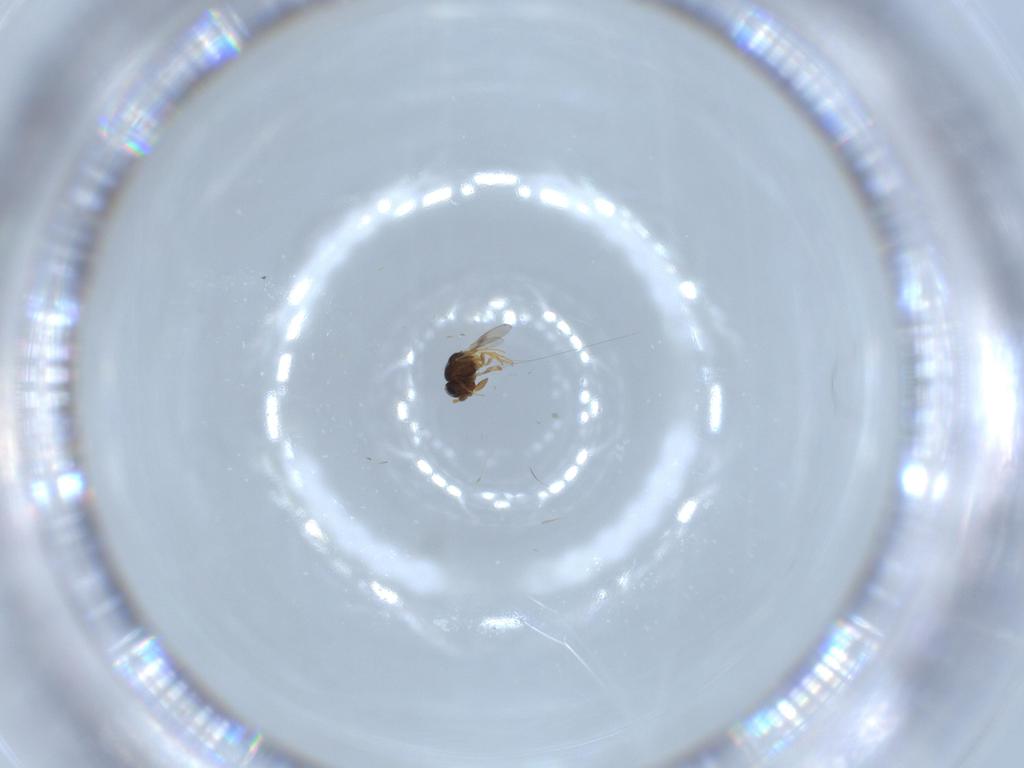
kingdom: Animalia
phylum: Arthropoda
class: Insecta
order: Hymenoptera
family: Scelionidae
